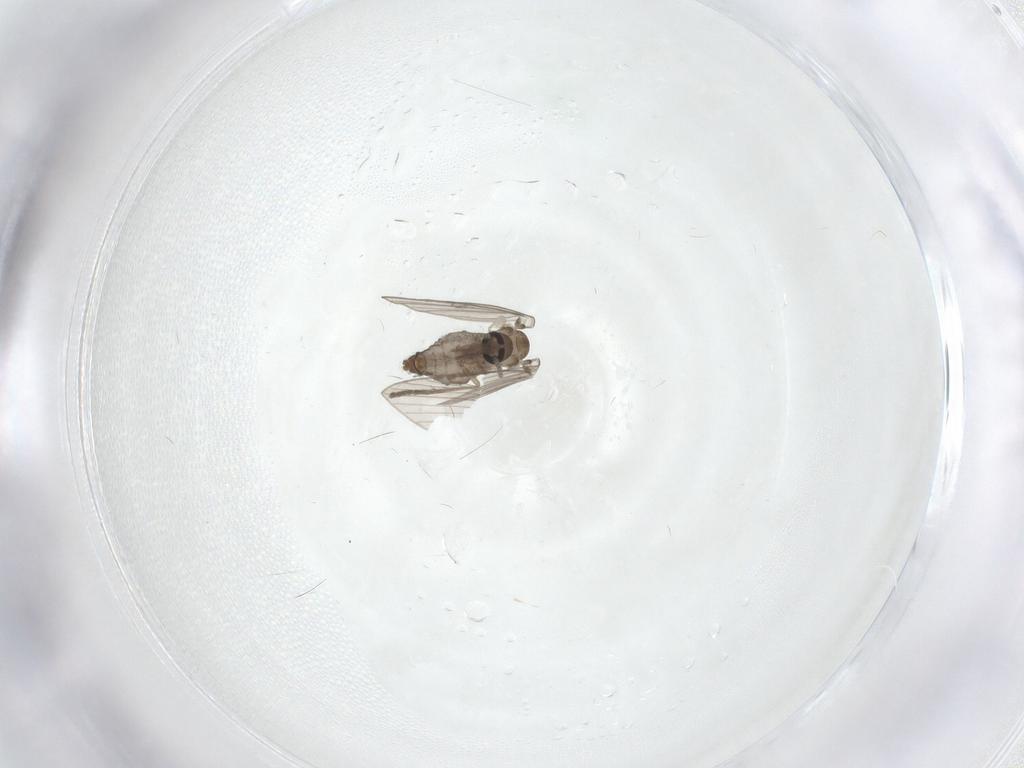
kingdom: Animalia
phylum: Arthropoda
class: Insecta
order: Diptera
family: Psychodidae
